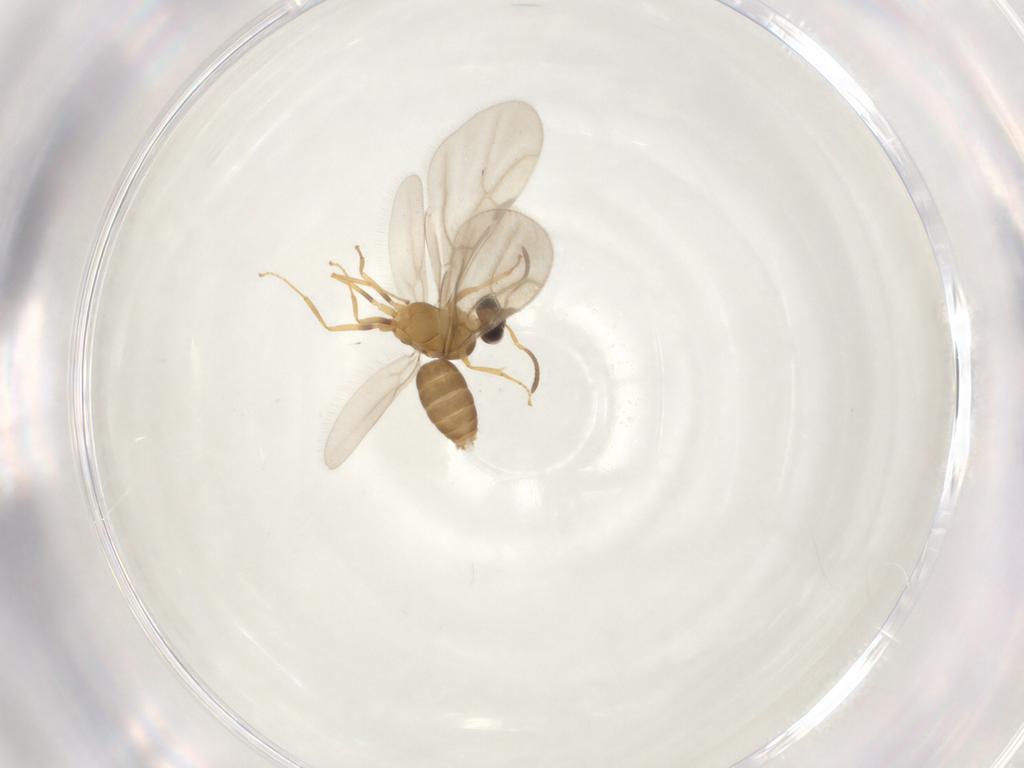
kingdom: Animalia
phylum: Arthropoda
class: Insecta
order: Hymenoptera
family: Formicidae
